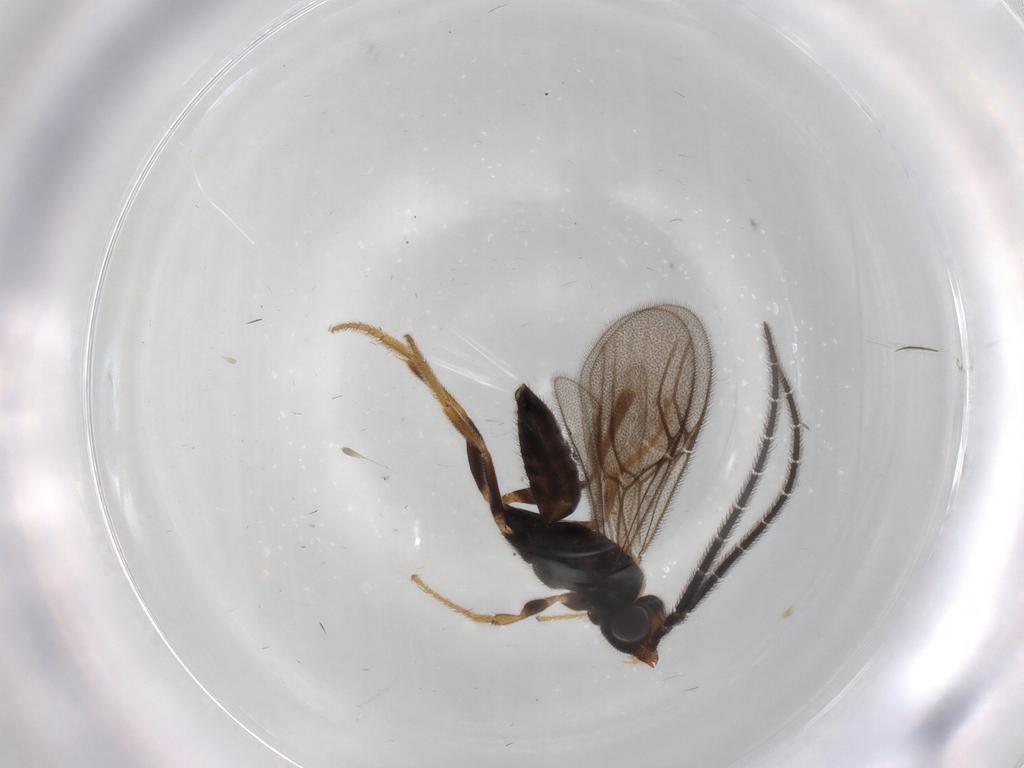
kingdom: Animalia
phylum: Arthropoda
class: Insecta
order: Hymenoptera
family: Dryinidae
